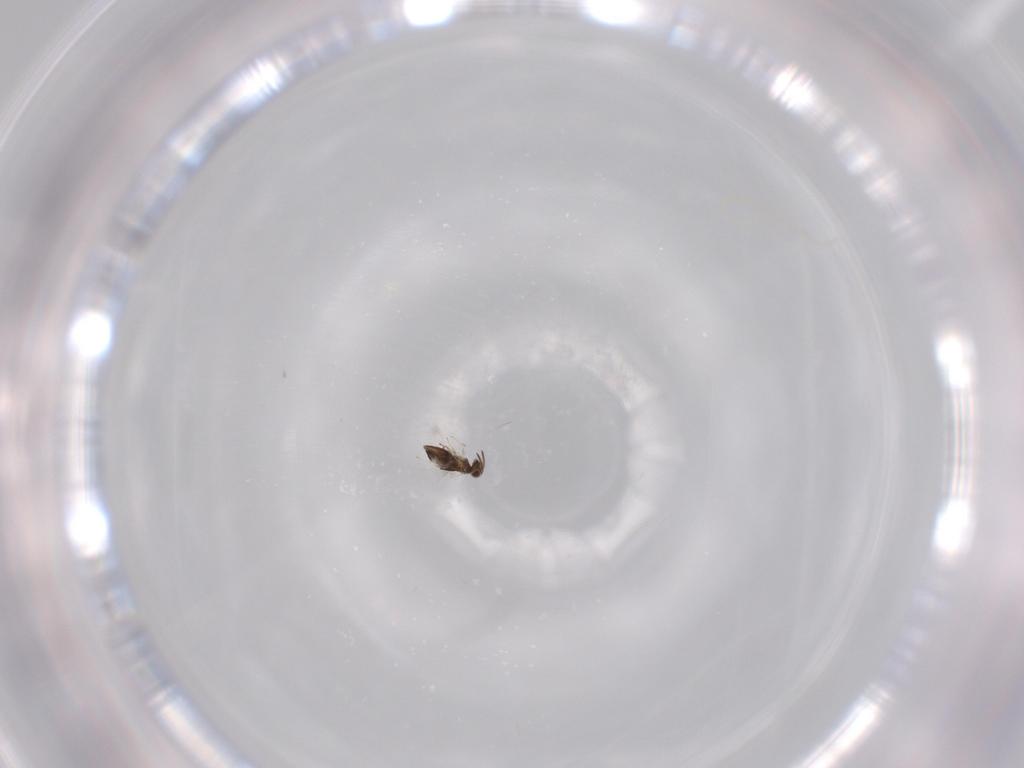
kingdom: Animalia
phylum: Arthropoda
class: Insecta
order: Hymenoptera
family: Signiphoridae
